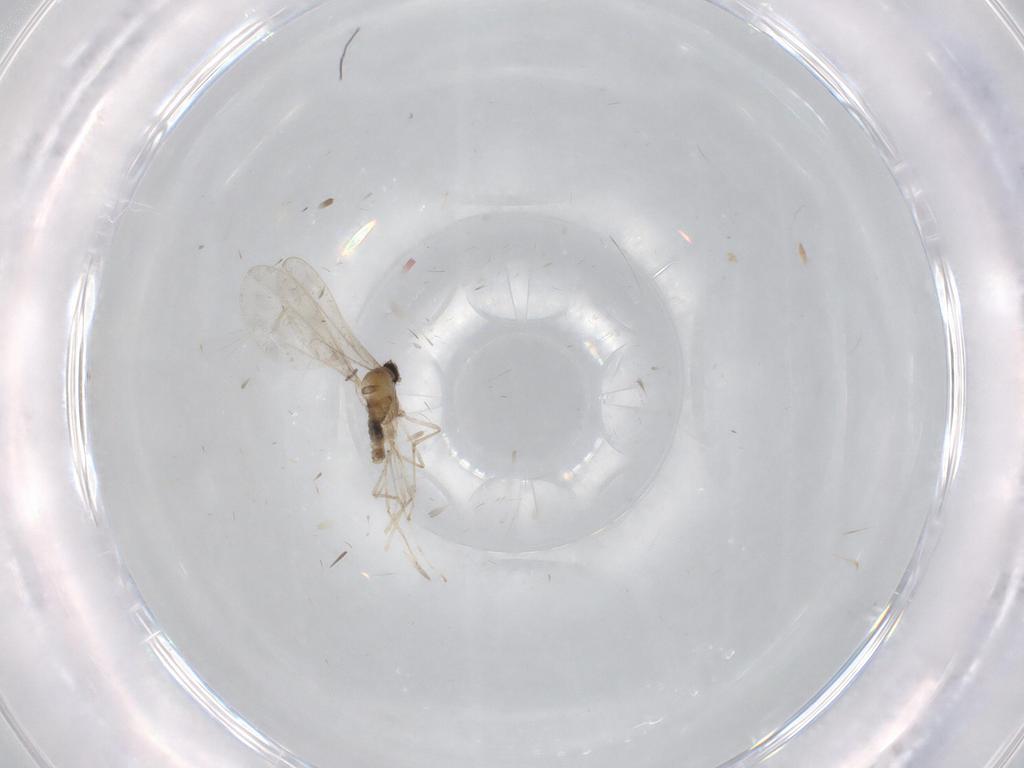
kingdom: Animalia
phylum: Arthropoda
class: Insecta
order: Diptera
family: Cecidomyiidae
